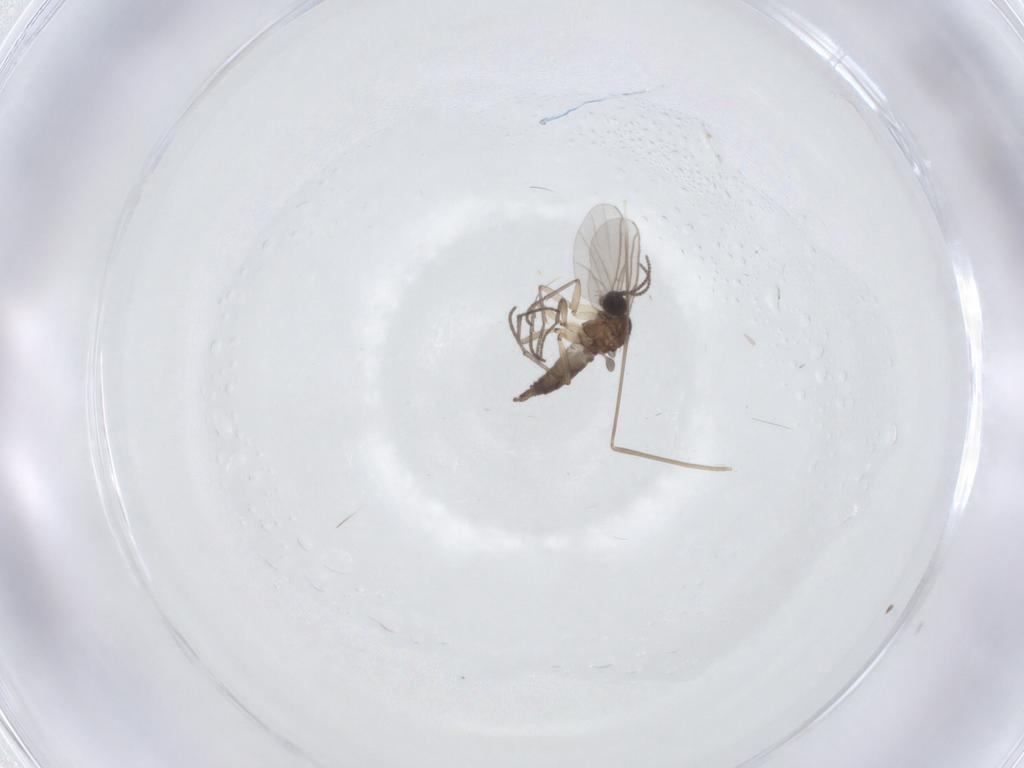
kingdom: Animalia
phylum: Arthropoda
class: Insecta
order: Diptera
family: Sciaridae
